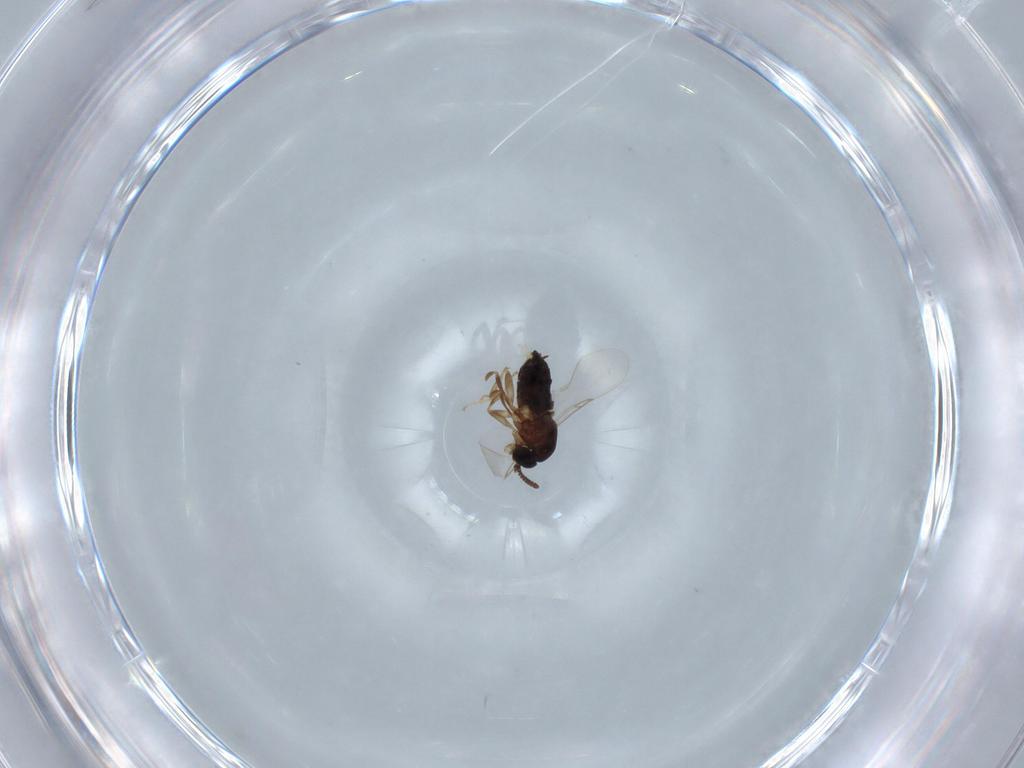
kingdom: Animalia
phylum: Arthropoda
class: Insecta
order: Diptera
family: Scatopsidae
